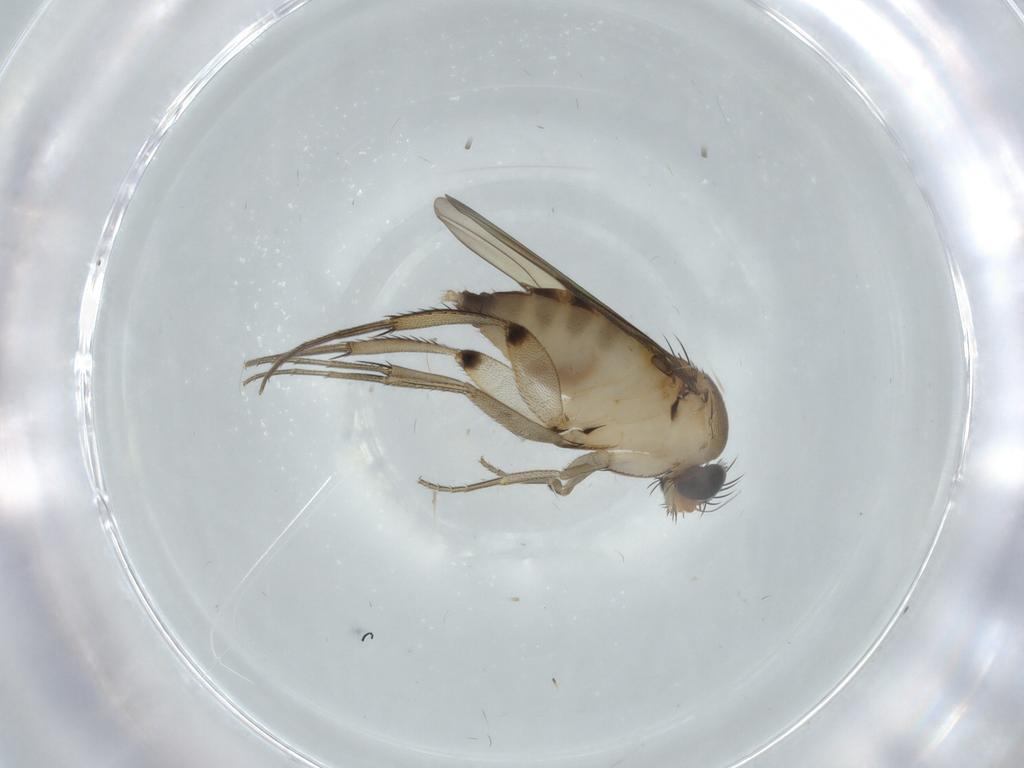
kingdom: Animalia
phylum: Arthropoda
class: Insecta
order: Diptera
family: Phoridae
